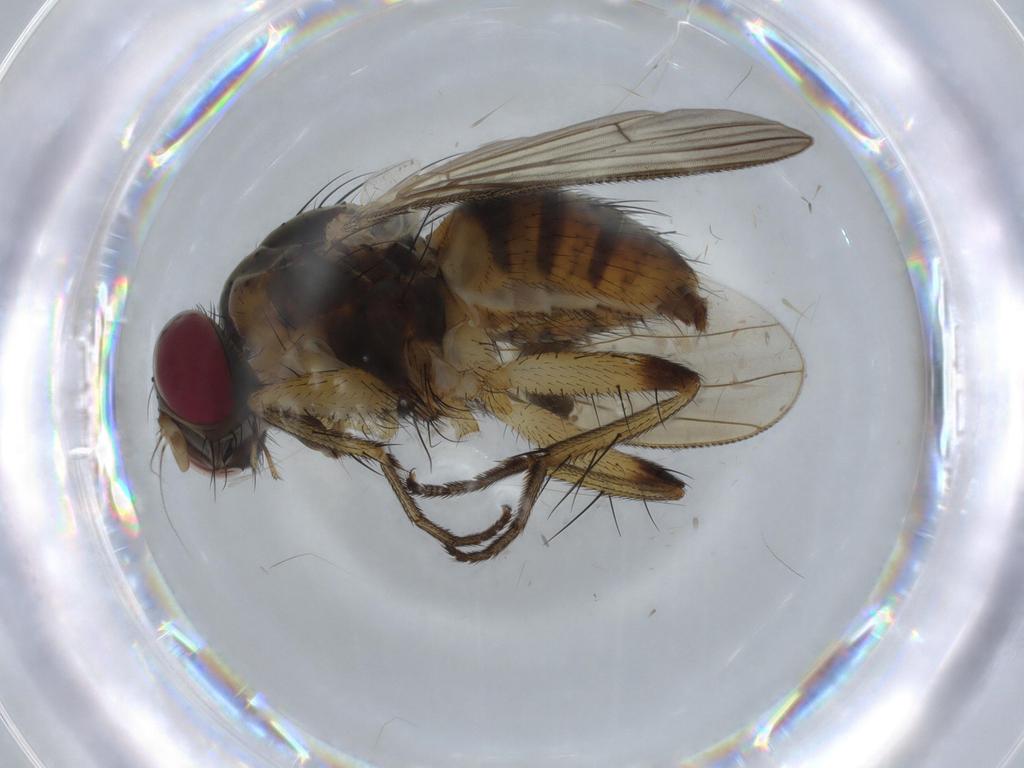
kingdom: Animalia
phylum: Arthropoda
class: Insecta
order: Diptera
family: Muscidae
